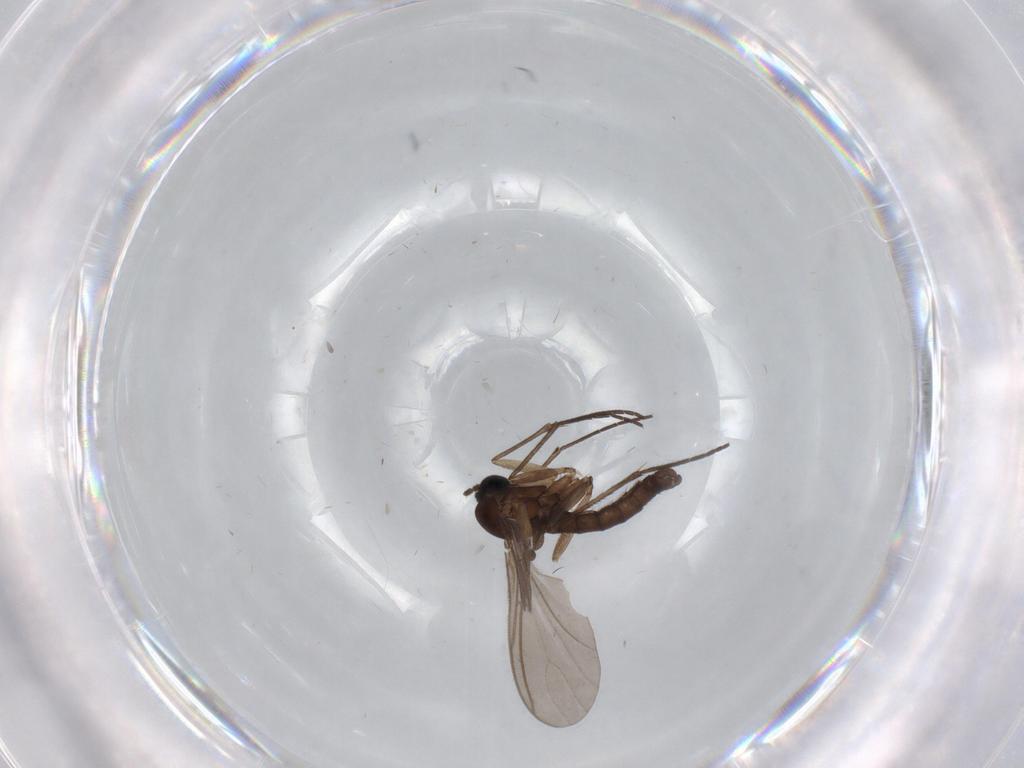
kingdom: Animalia
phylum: Arthropoda
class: Insecta
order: Diptera
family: Sciaridae
